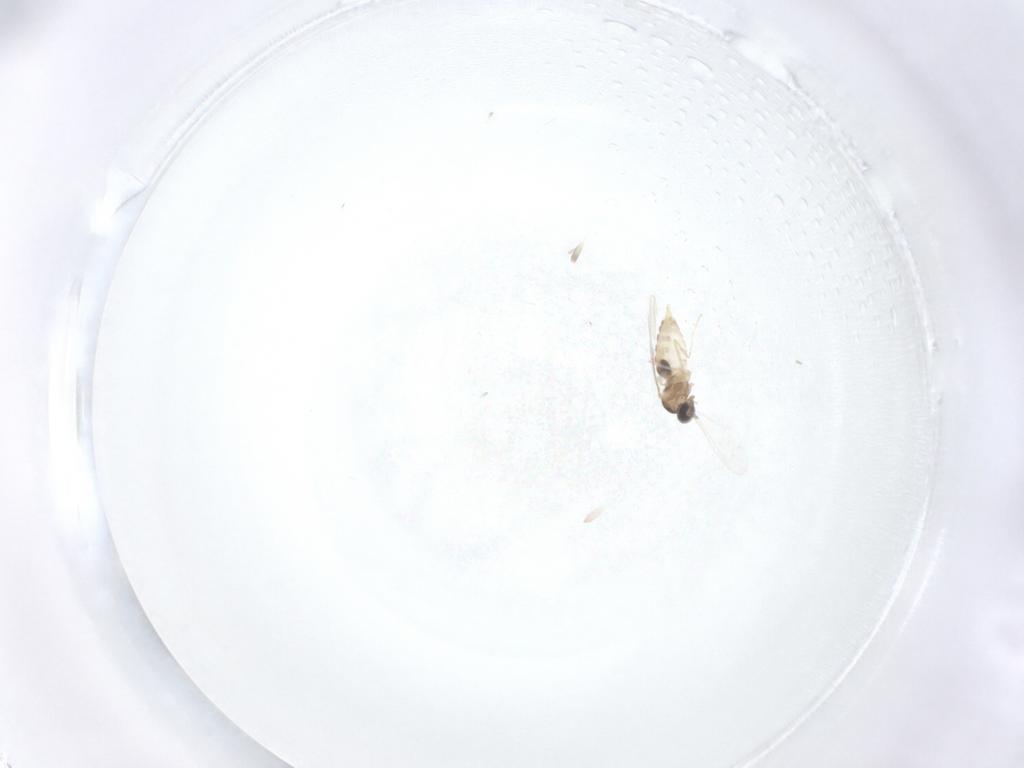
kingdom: Animalia
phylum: Arthropoda
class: Insecta
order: Diptera
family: Cecidomyiidae
